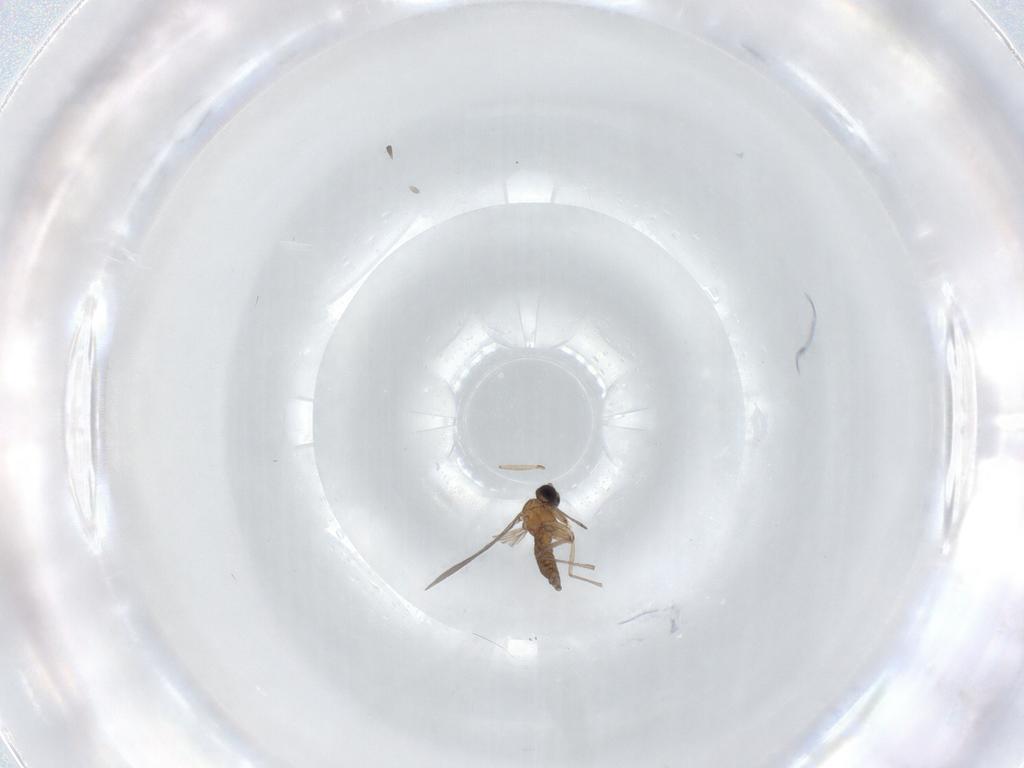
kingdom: Animalia
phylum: Arthropoda
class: Insecta
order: Diptera
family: Sciaridae
